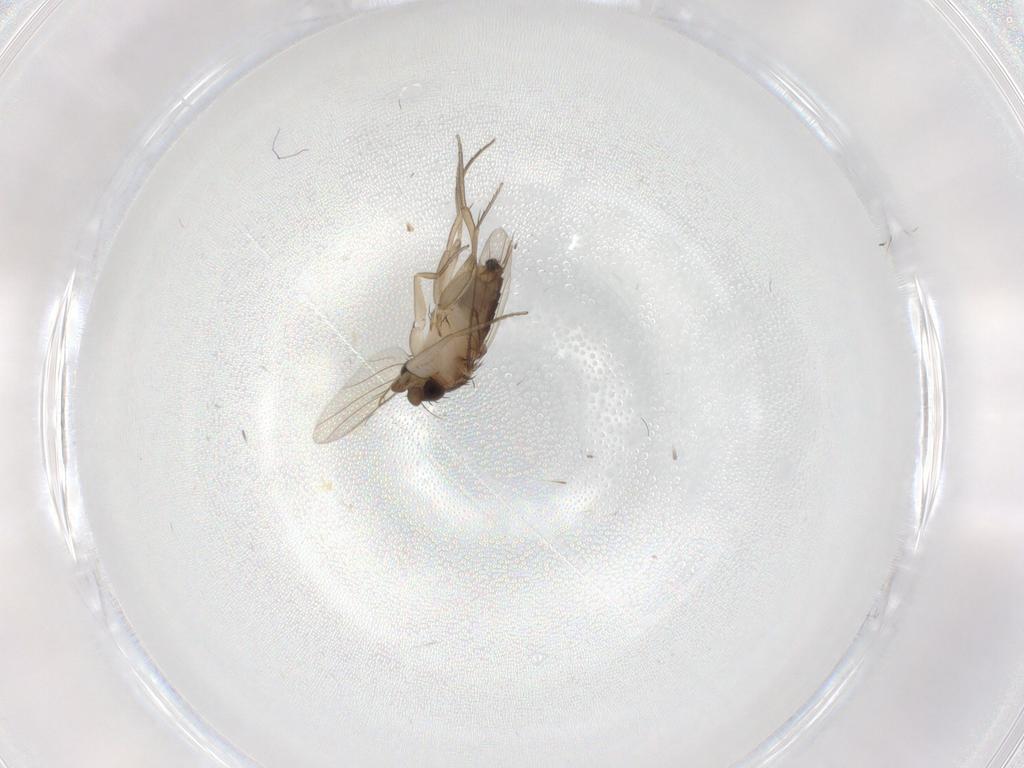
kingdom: Animalia
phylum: Arthropoda
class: Insecta
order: Diptera
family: Phoridae
